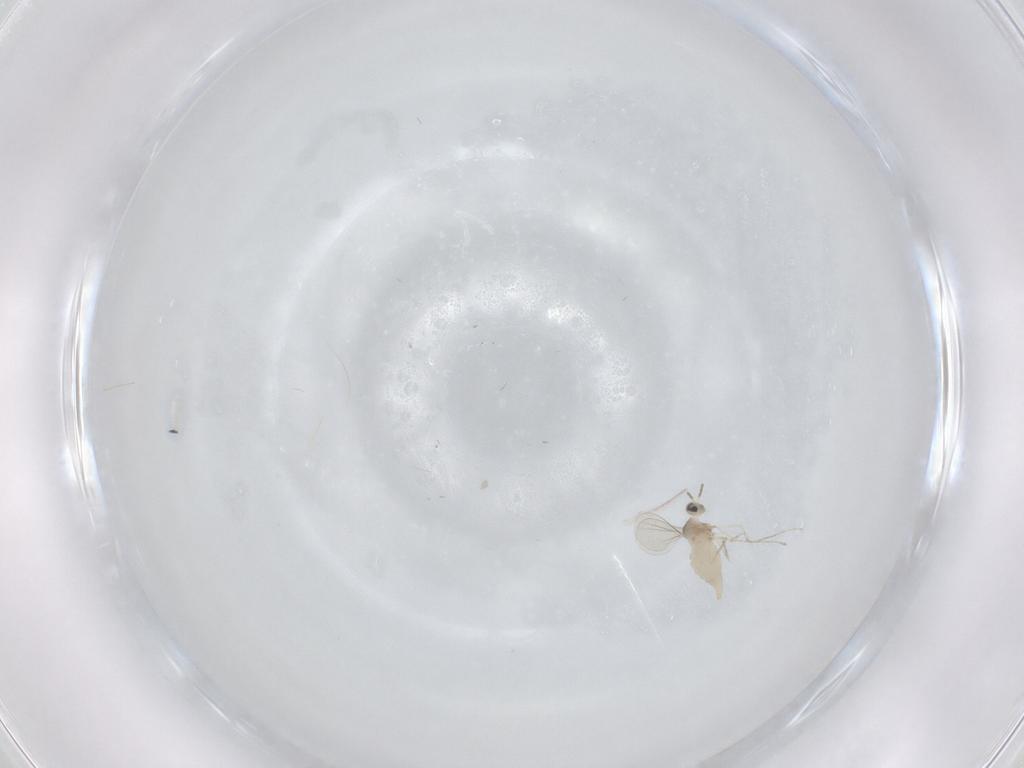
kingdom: Animalia
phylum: Arthropoda
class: Insecta
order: Diptera
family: Cecidomyiidae
